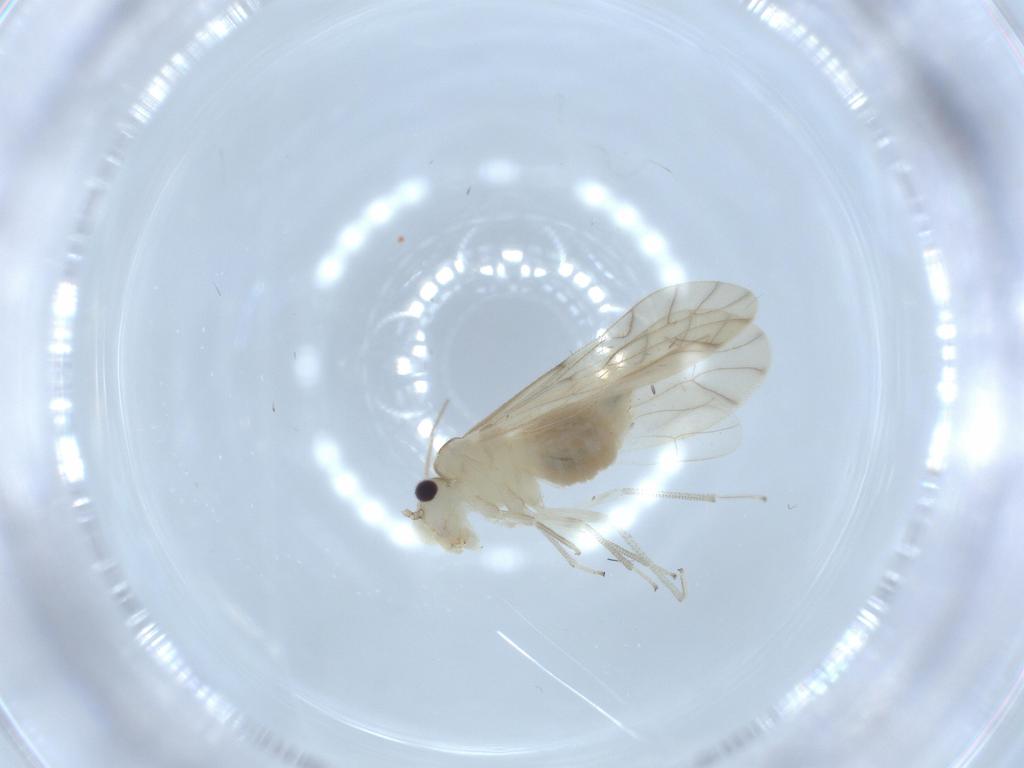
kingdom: Animalia
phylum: Arthropoda
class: Insecta
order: Psocodea
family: Caeciliusidae
